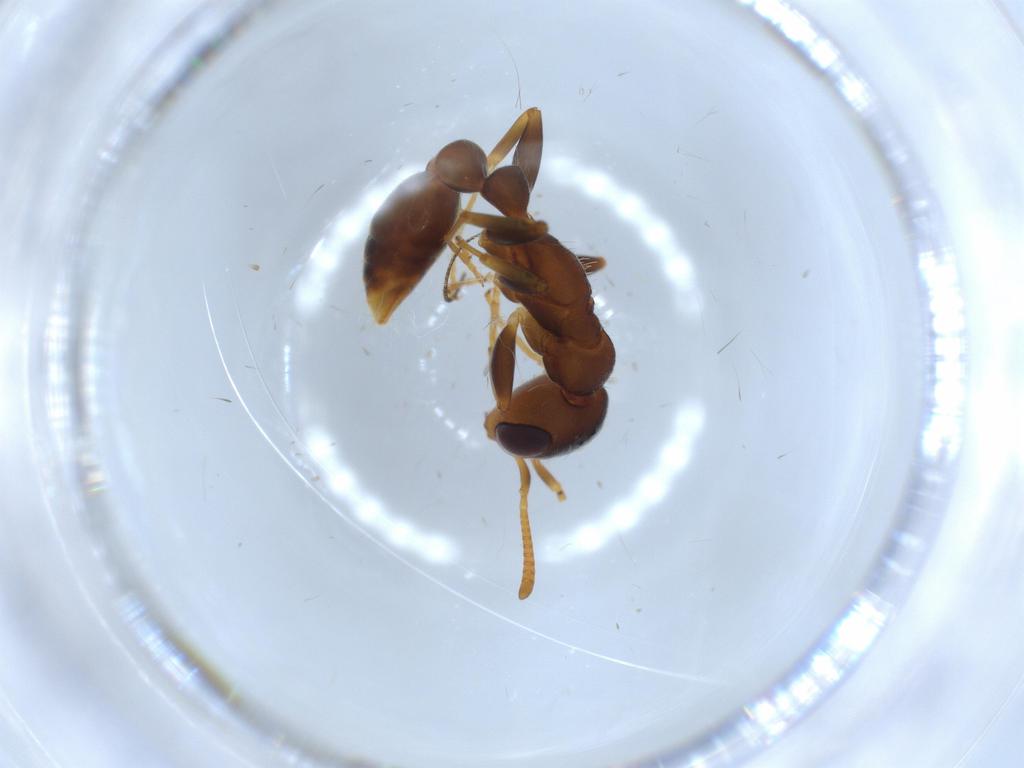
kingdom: Animalia
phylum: Arthropoda
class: Insecta
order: Hymenoptera
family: Formicidae
